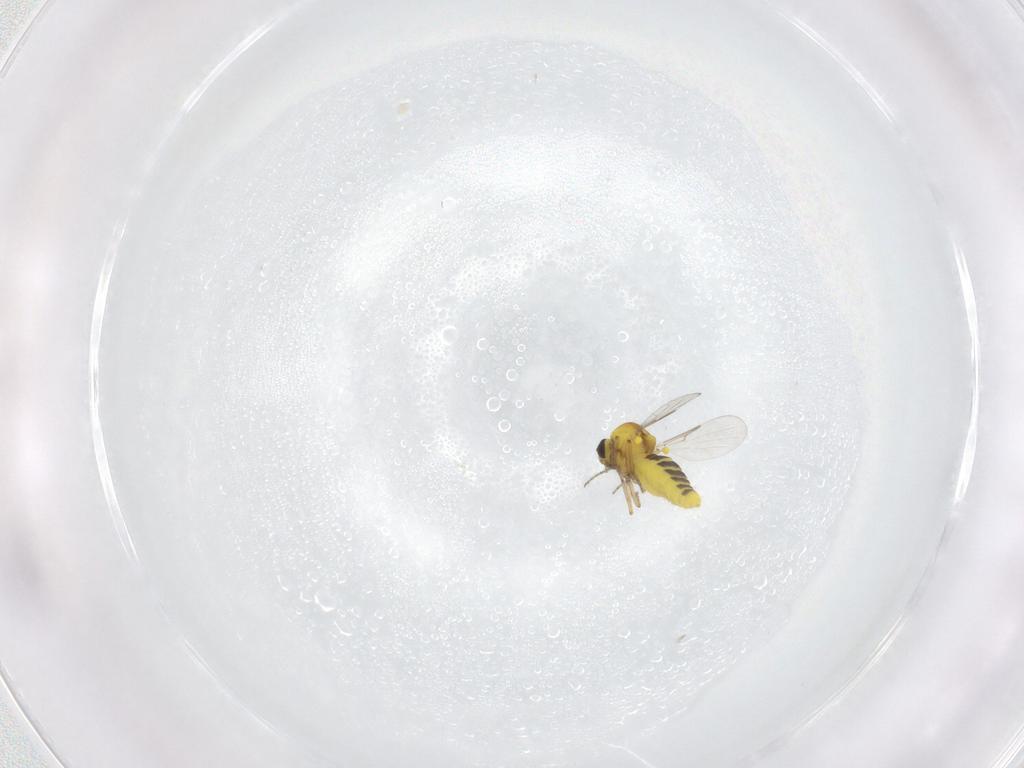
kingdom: Animalia
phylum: Arthropoda
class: Insecta
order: Diptera
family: Ceratopogonidae
